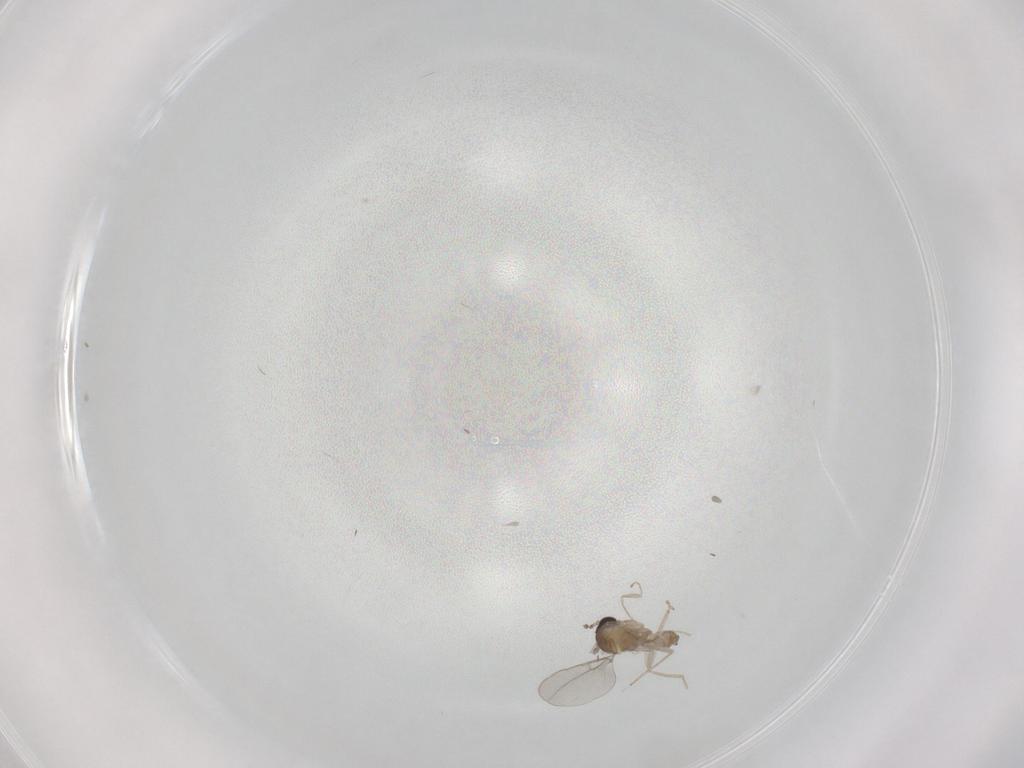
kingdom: Animalia
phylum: Arthropoda
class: Insecta
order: Diptera
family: Cecidomyiidae
